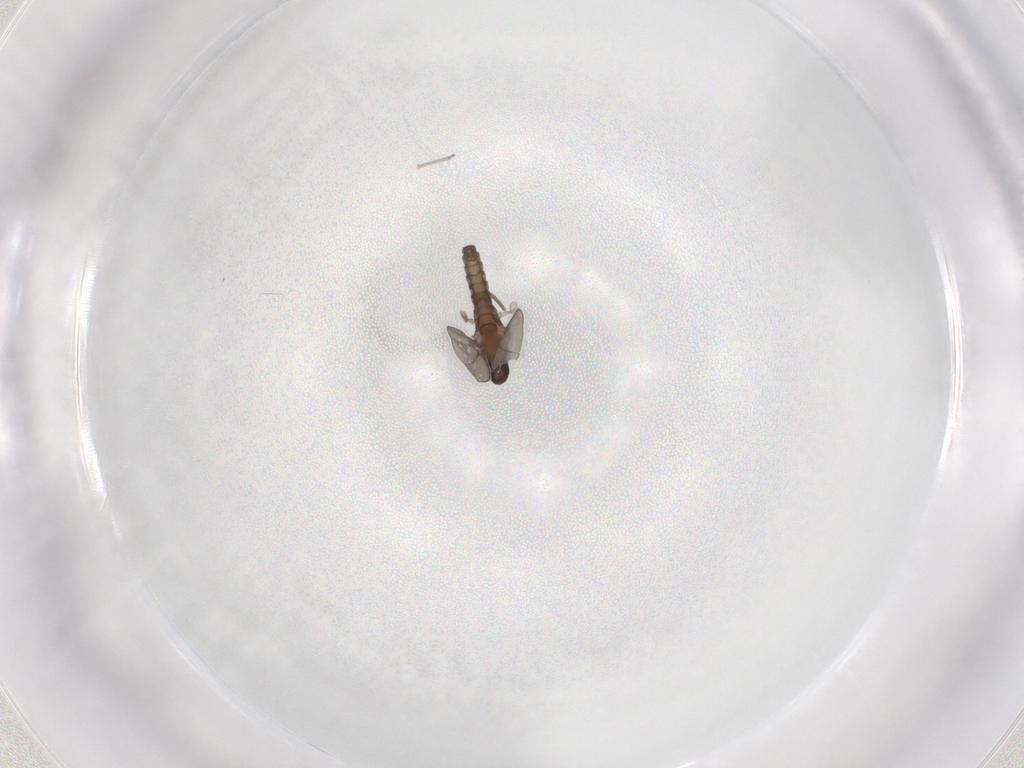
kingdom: Animalia
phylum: Arthropoda
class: Insecta
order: Diptera
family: Cecidomyiidae
